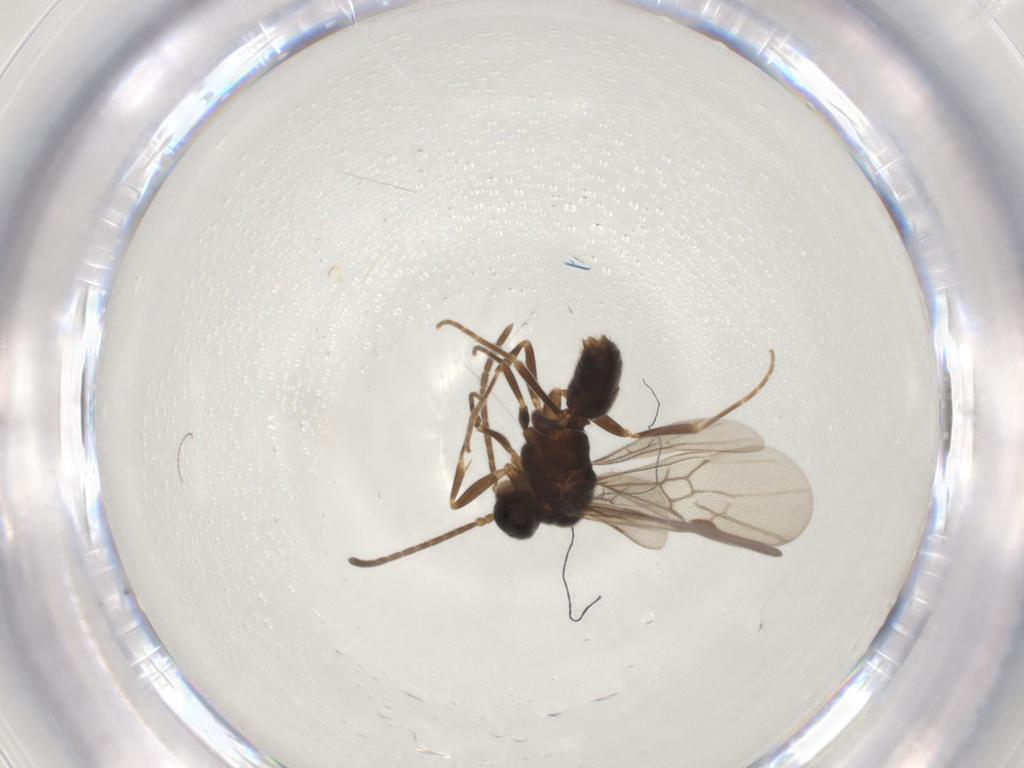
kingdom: Animalia
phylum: Arthropoda
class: Insecta
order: Hymenoptera
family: Formicidae
